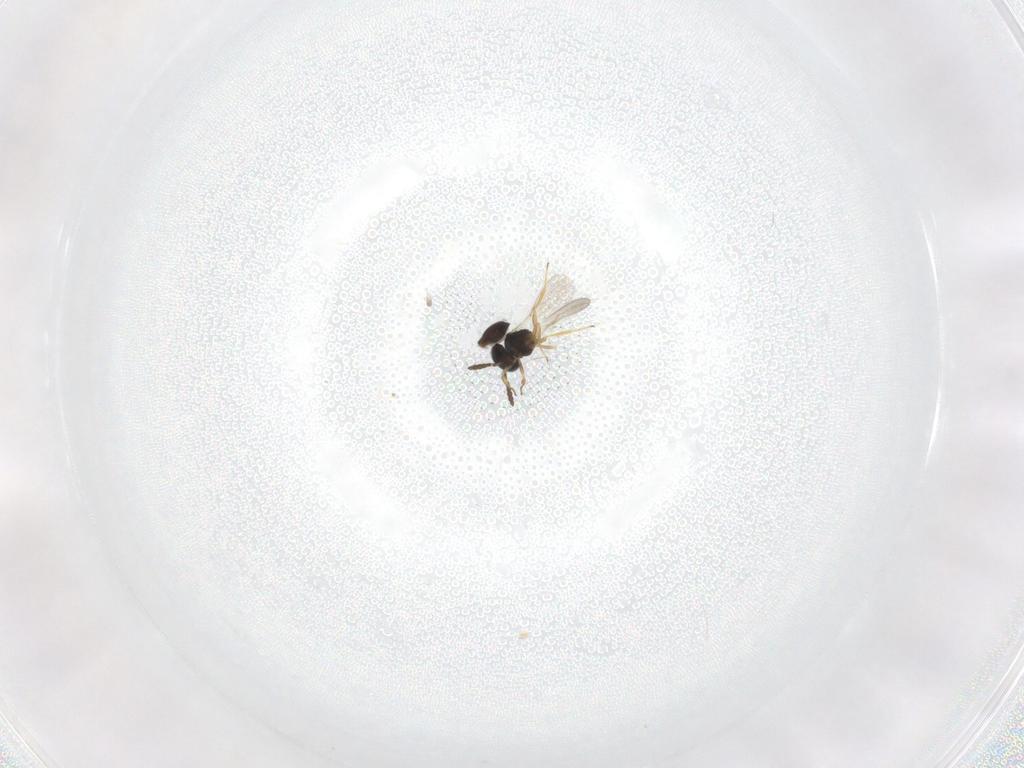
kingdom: Animalia
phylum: Arthropoda
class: Insecta
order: Hymenoptera
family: Scelionidae
